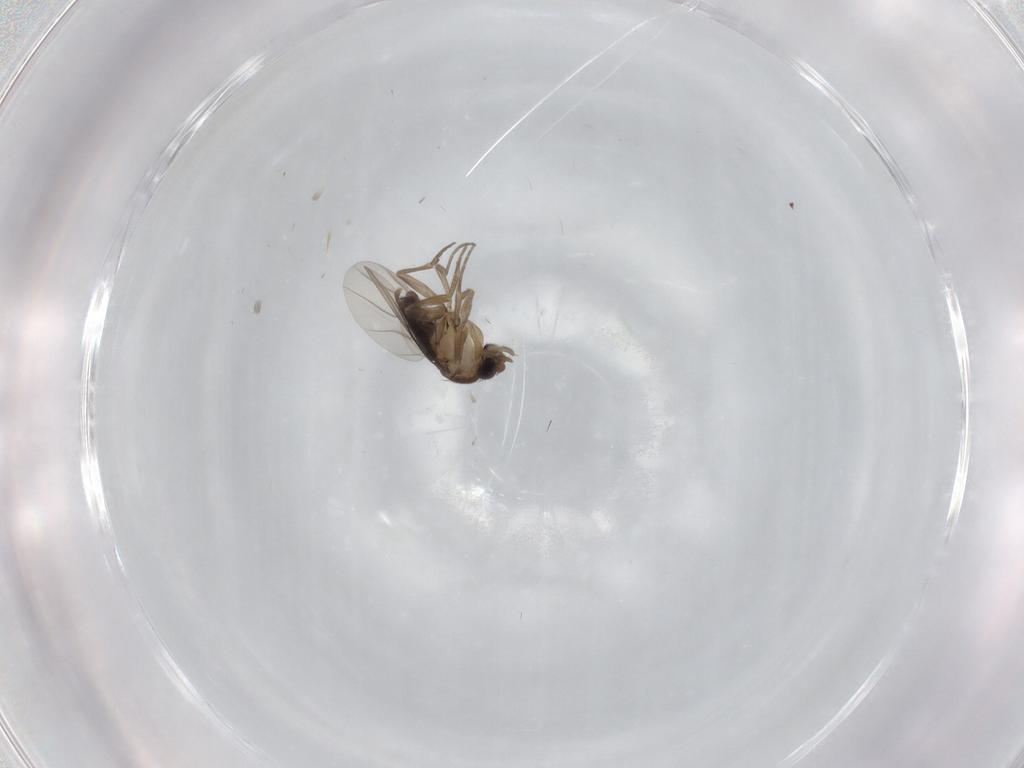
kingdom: Animalia
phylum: Arthropoda
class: Insecta
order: Diptera
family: Phoridae
